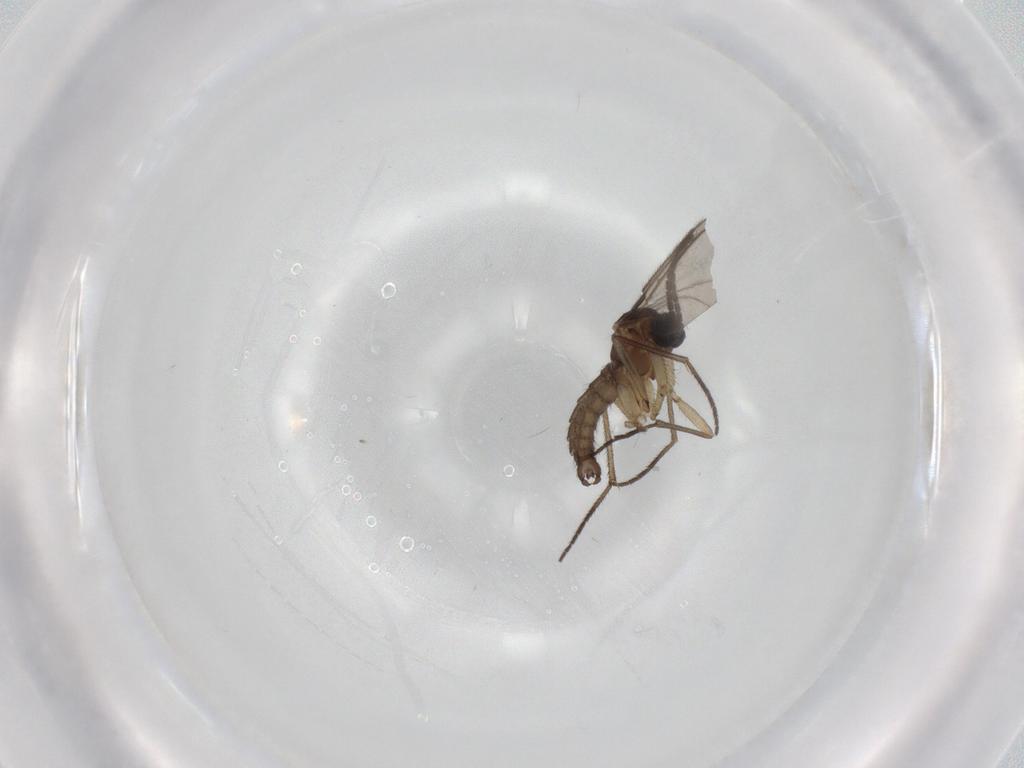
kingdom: Animalia
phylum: Arthropoda
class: Insecta
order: Diptera
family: Sciaridae
